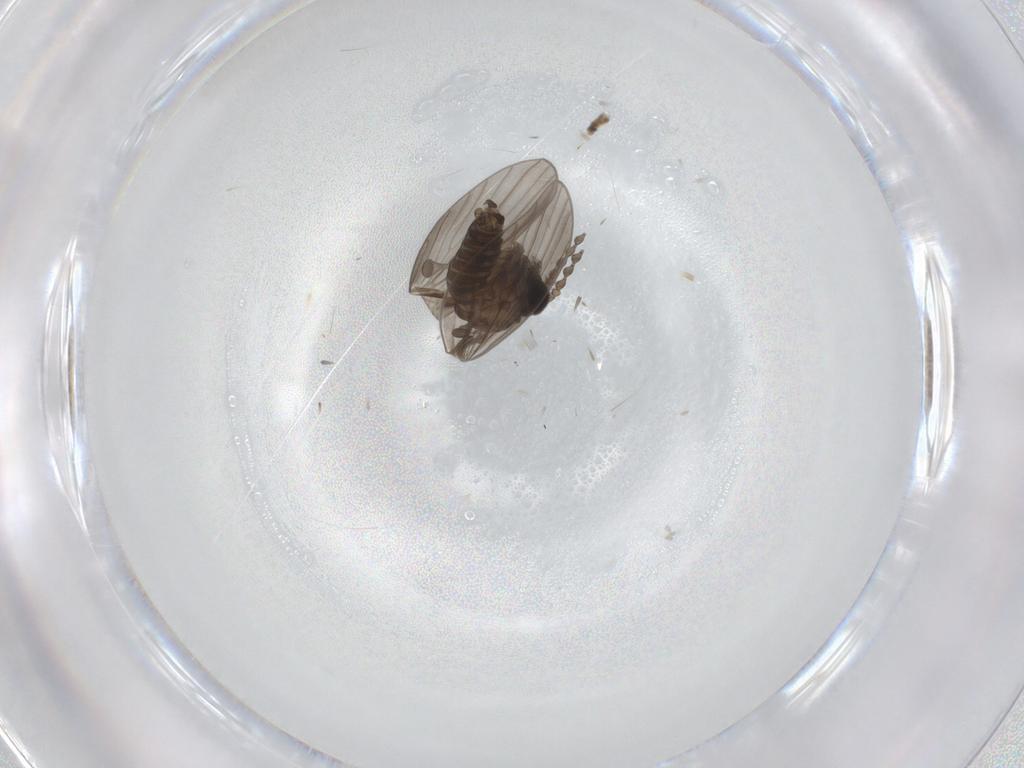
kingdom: Animalia
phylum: Arthropoda
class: Insecta
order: Diptera
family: Psychodidae
